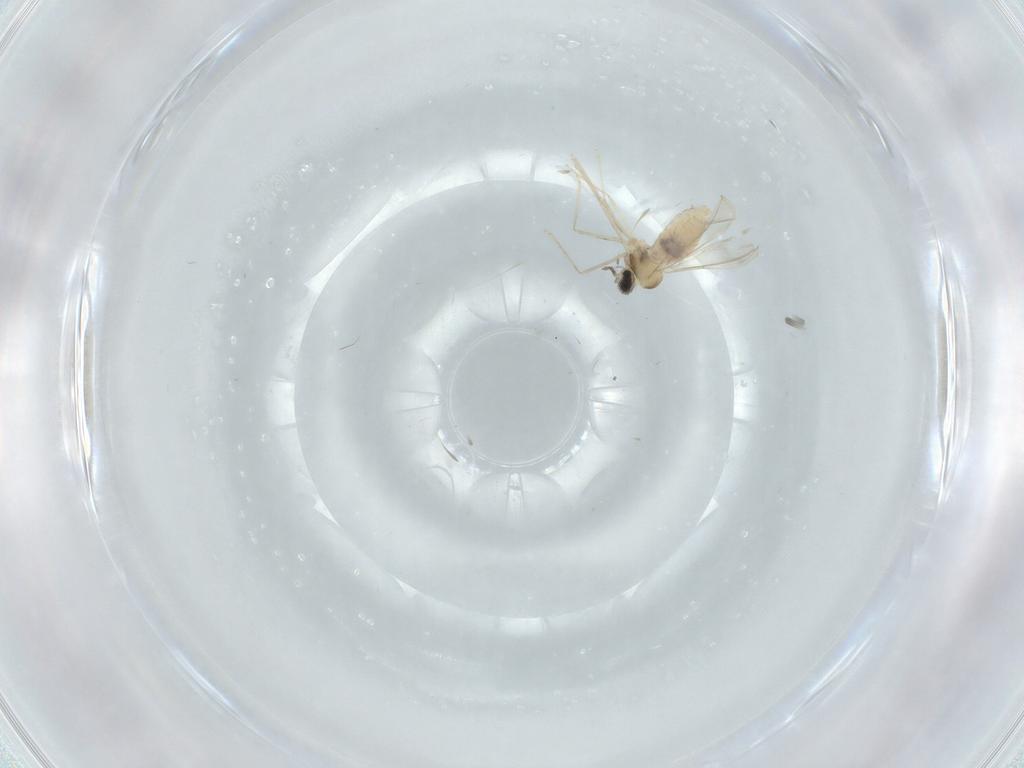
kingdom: Animalia
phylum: Arthropoda
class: Insecta
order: Diptera
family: Cecidomyiidae
